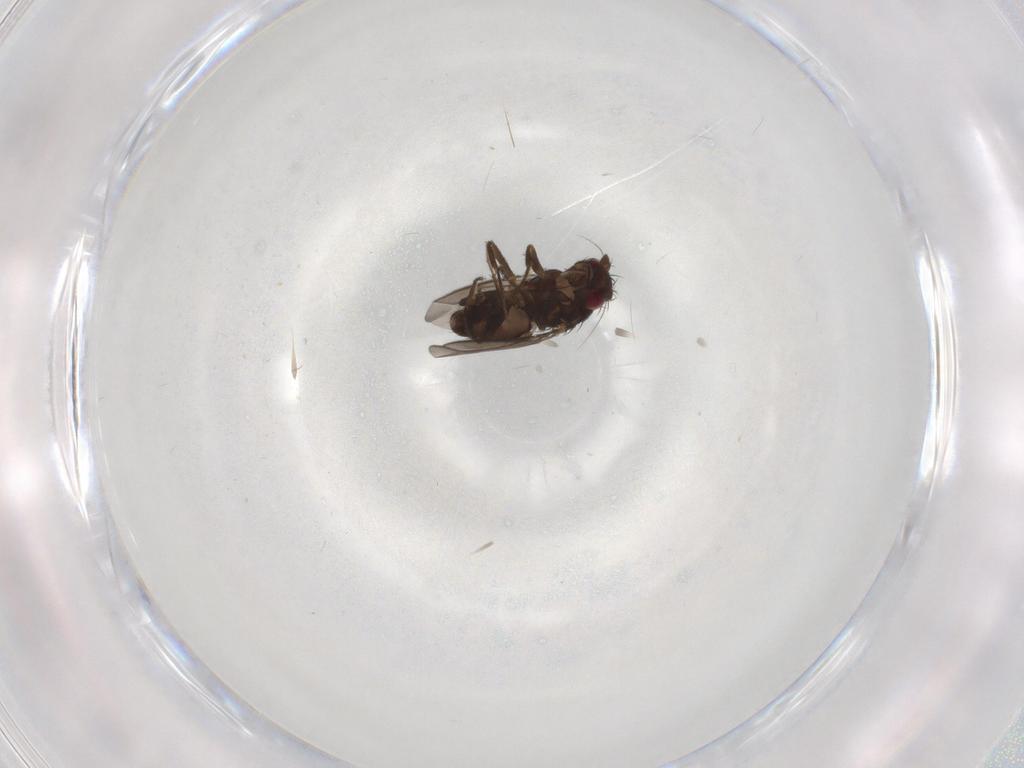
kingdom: Animalia
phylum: Arthropoda
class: Insecta
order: Diptera
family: Sphaeroceridae
